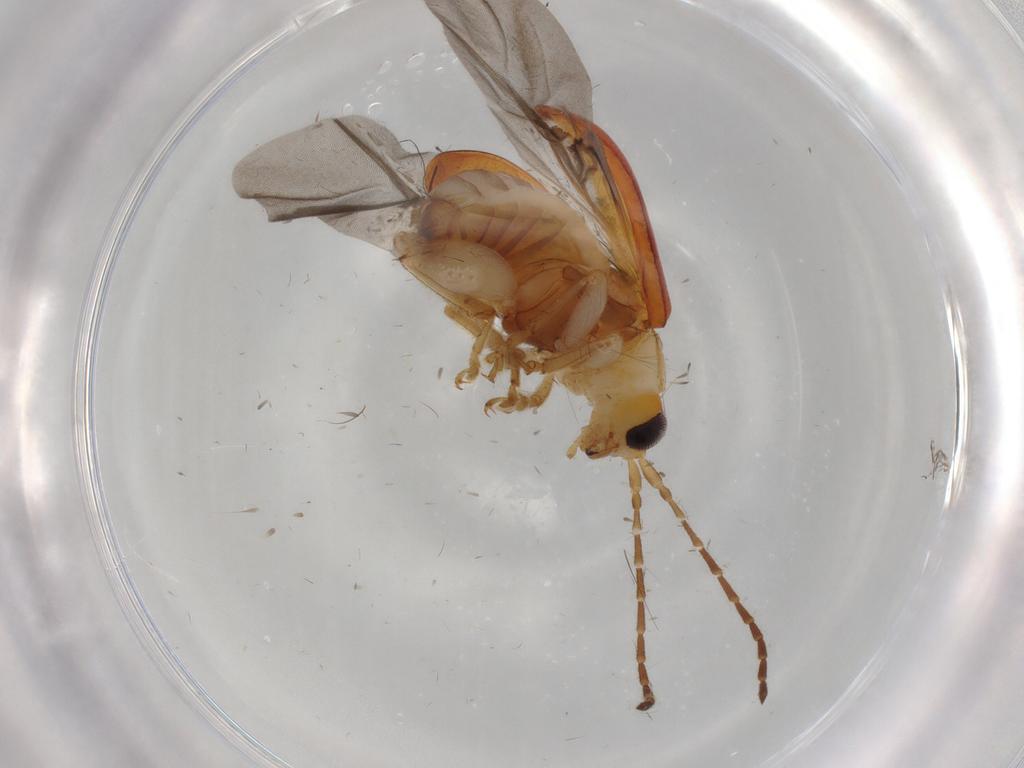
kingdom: Animalia
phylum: Arthropoda
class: Insecta
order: Coleoptera
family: Chrysomelidae
